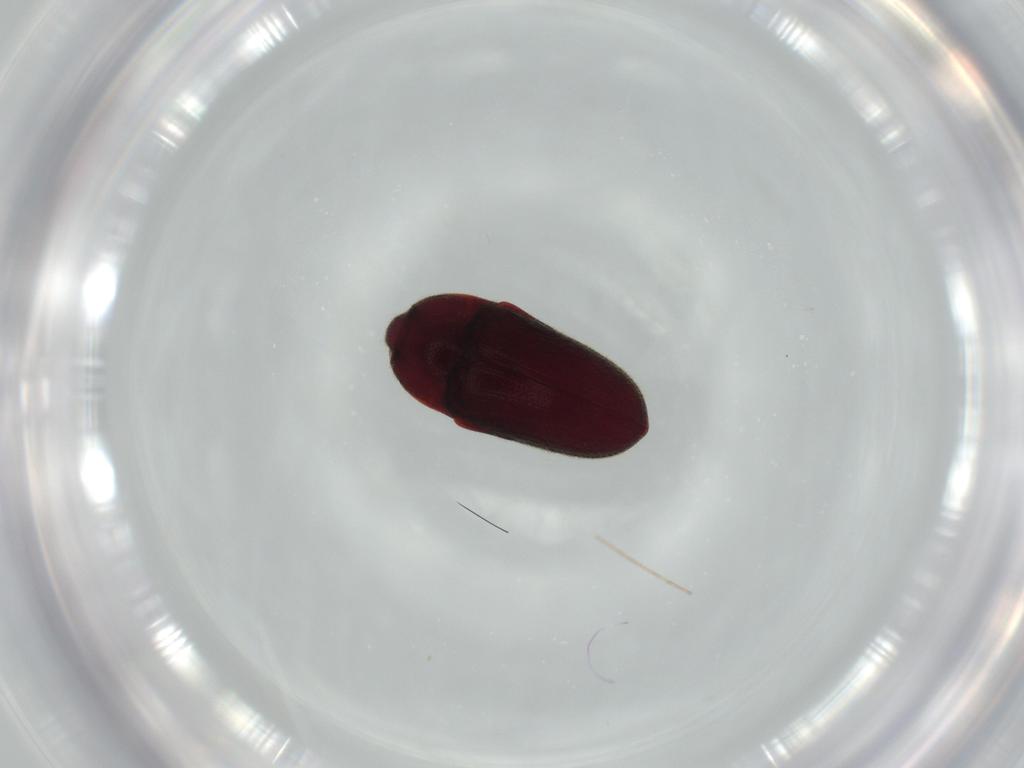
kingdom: Animalia
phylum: Arthropoda
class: Insecta
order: Coleoptera
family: Throscidae
